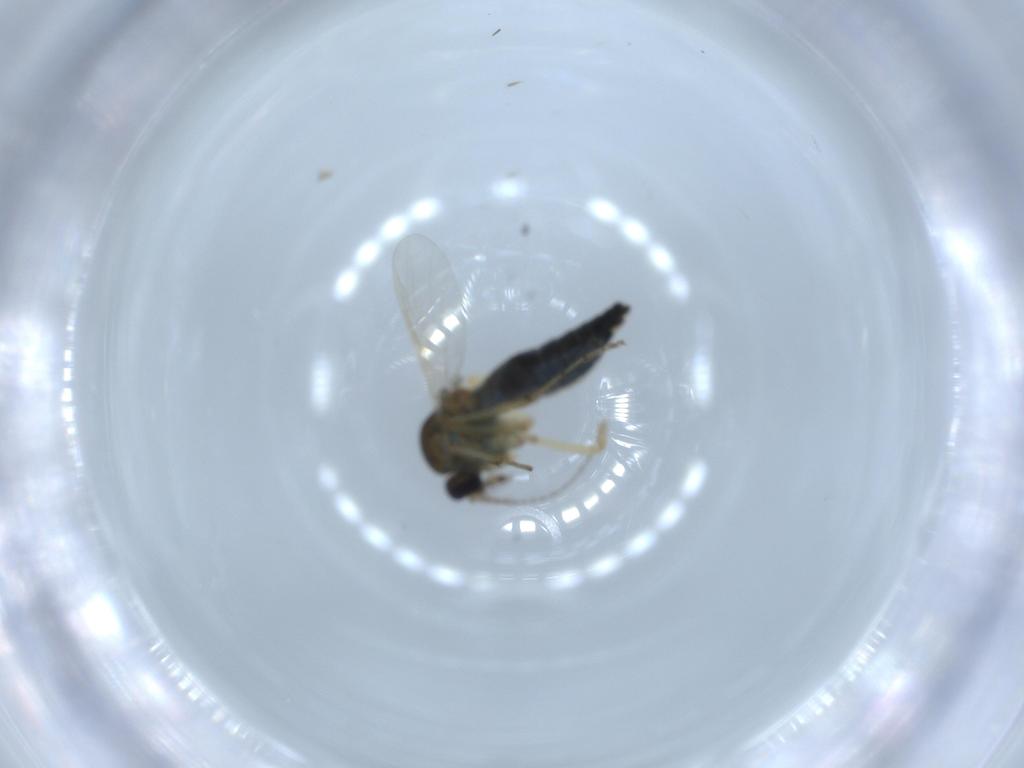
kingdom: Animalia
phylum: Arthropoda
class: Insecta
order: Diptera
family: Ceratopogonidae
